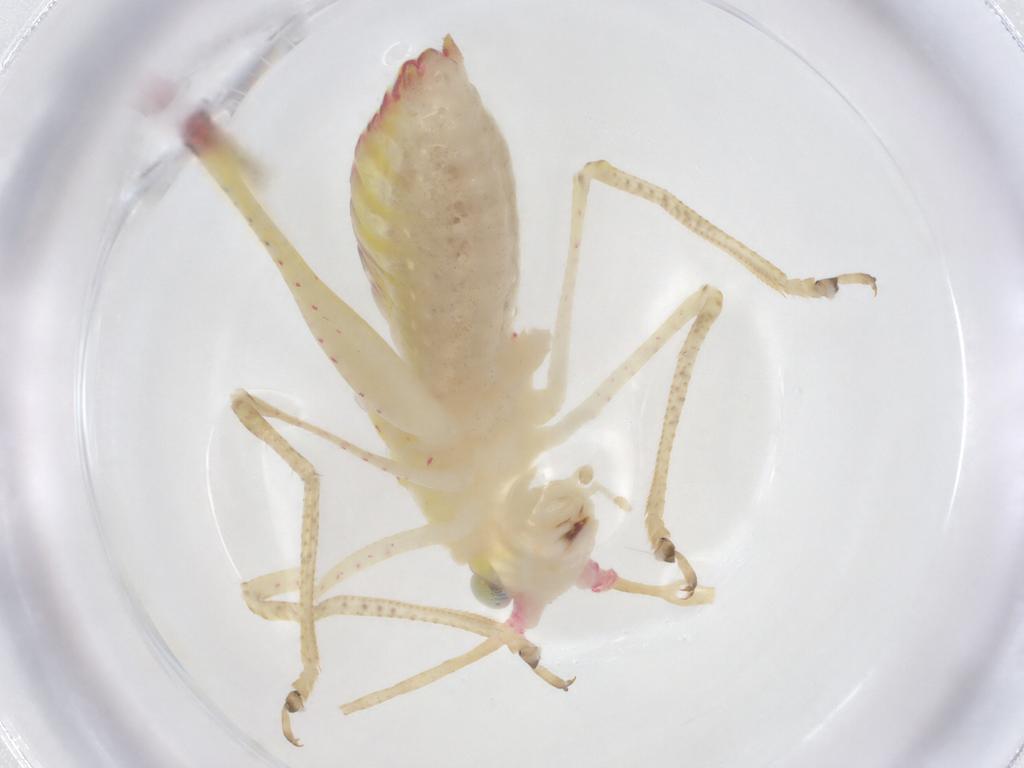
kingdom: Animalia
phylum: Arthropoda
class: Insecta
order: Orthoptera
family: Tettigoniidae
